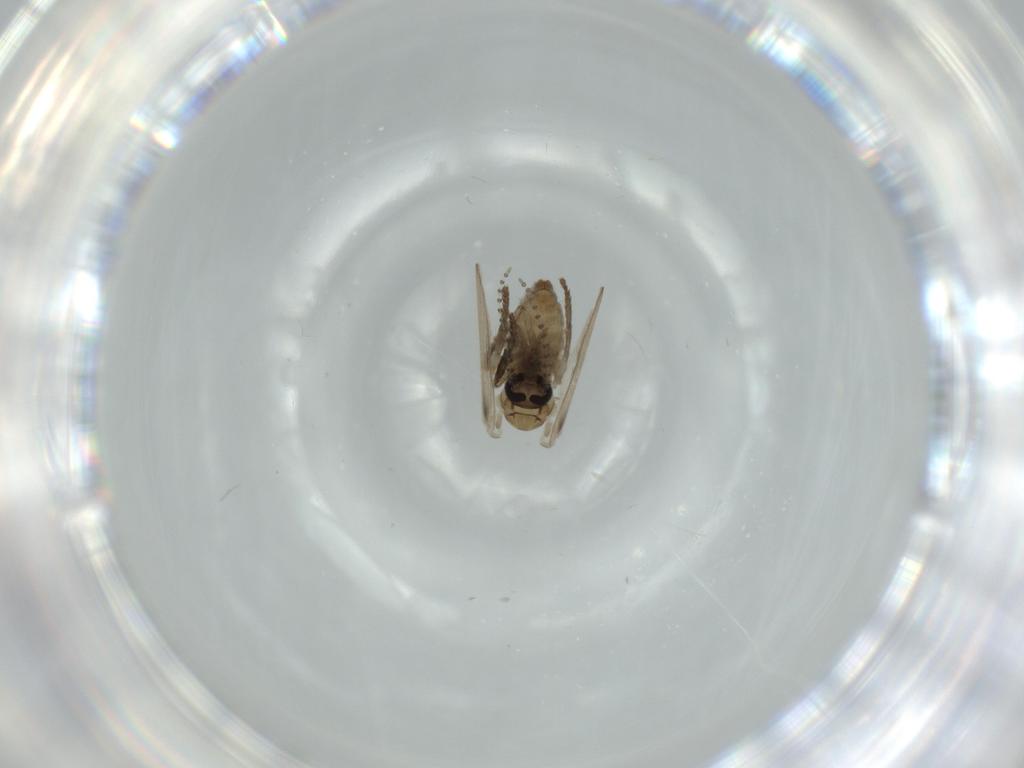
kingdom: Animalia
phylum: Arthropoda
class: Insecta
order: Diptera
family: Psychodidae
